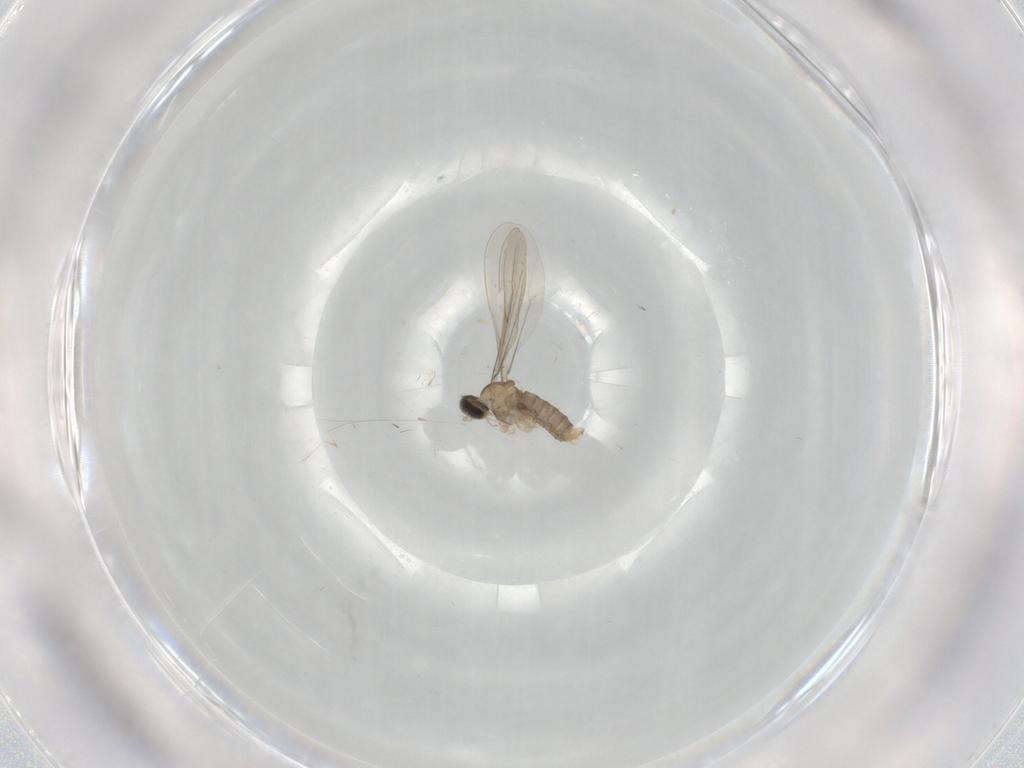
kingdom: Animalia
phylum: Arthropoda
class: Insecta
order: Diptera
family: Cecidomyiidae
